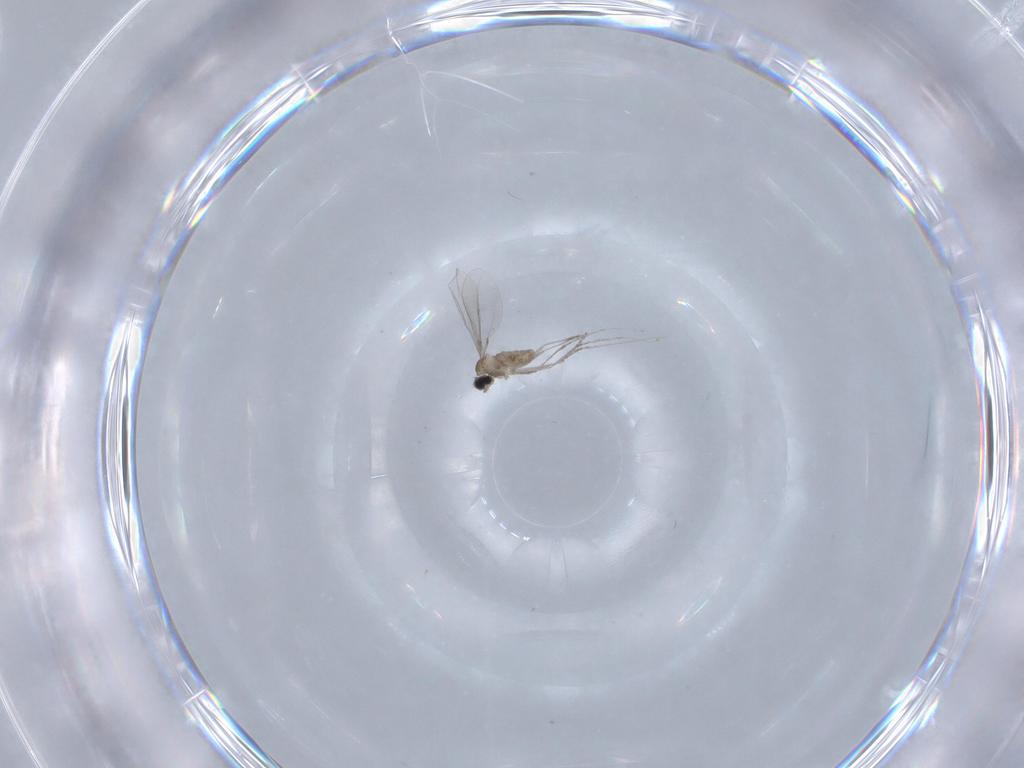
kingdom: Animalia
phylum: Arthropoda
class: Insecta
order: Diptera
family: Cecidomyiidae
